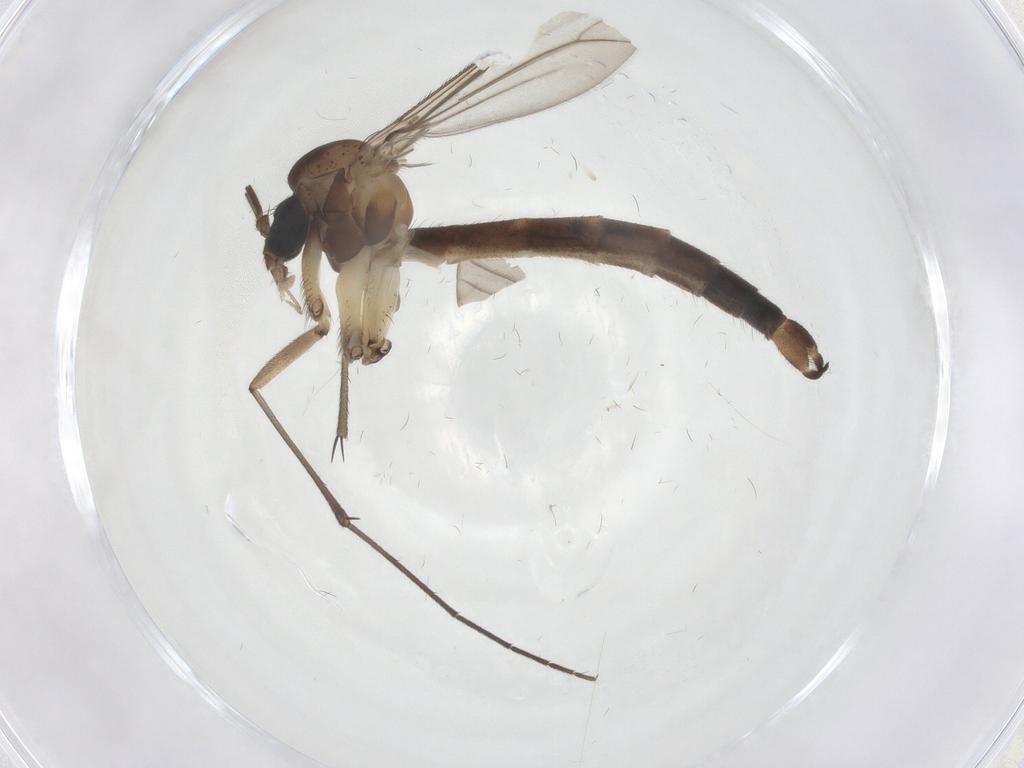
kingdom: Animalia
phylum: Arthropoda
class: Insecta
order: Diptera
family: Mycetophilidae
